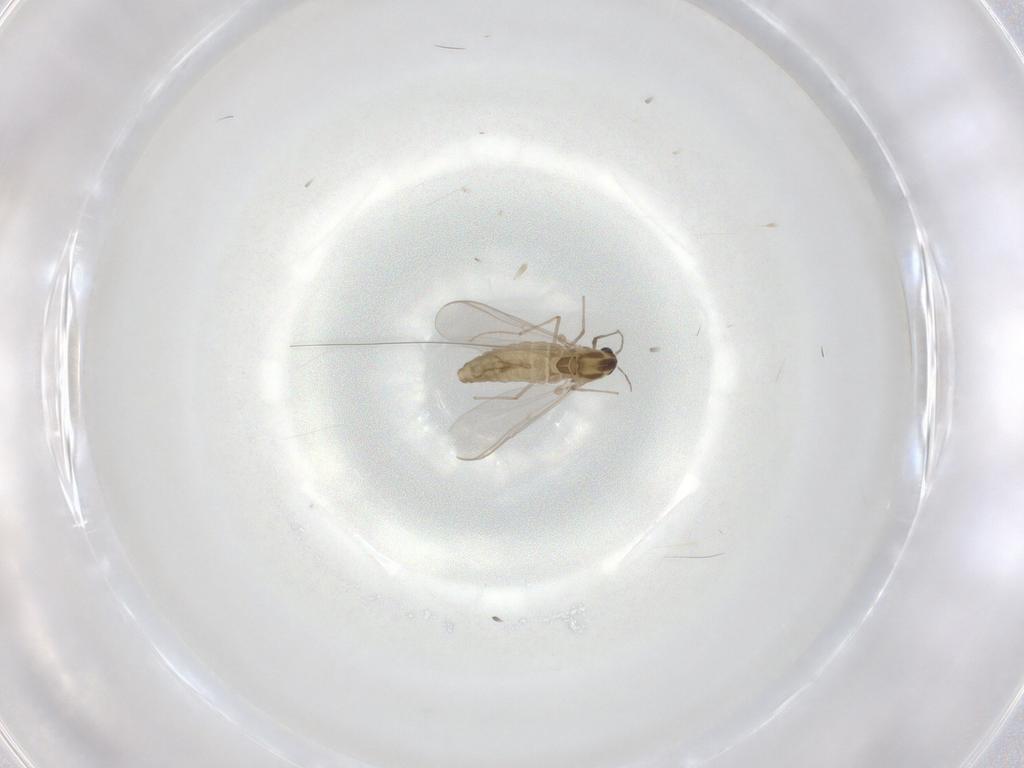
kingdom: Animalia
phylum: Arthropoda
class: Insecta
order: Diptera
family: Chironomidae
